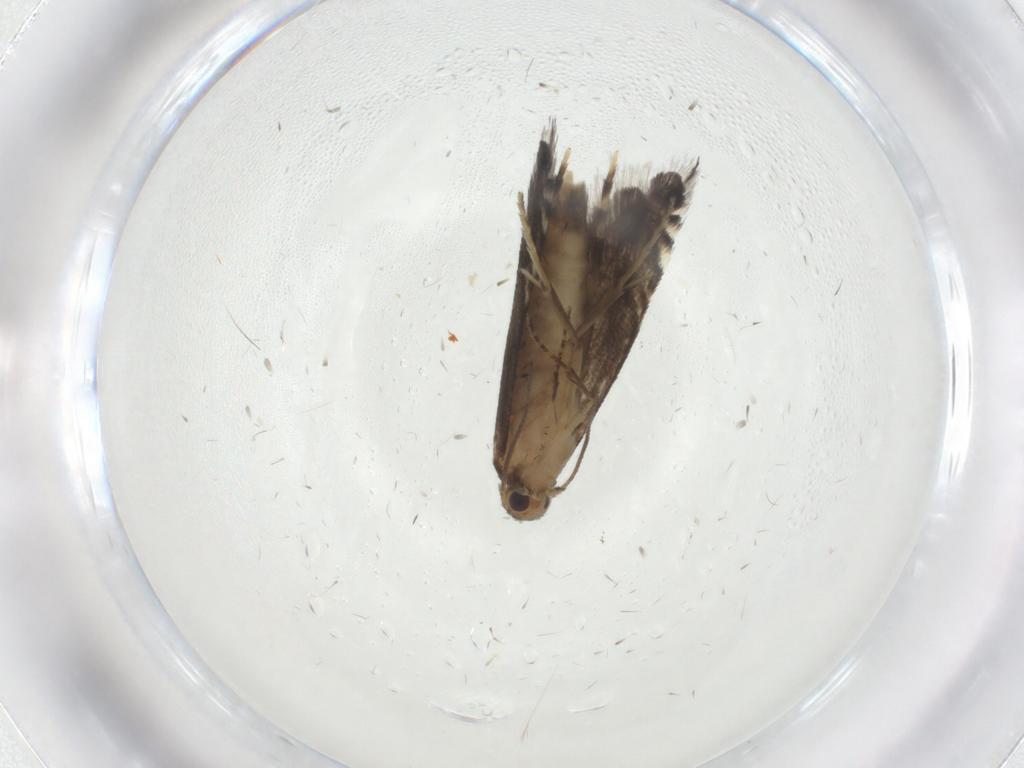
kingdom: Animalia
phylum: Arthropoda
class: Insecta
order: Lepidoptera
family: Glyphipterigidae
